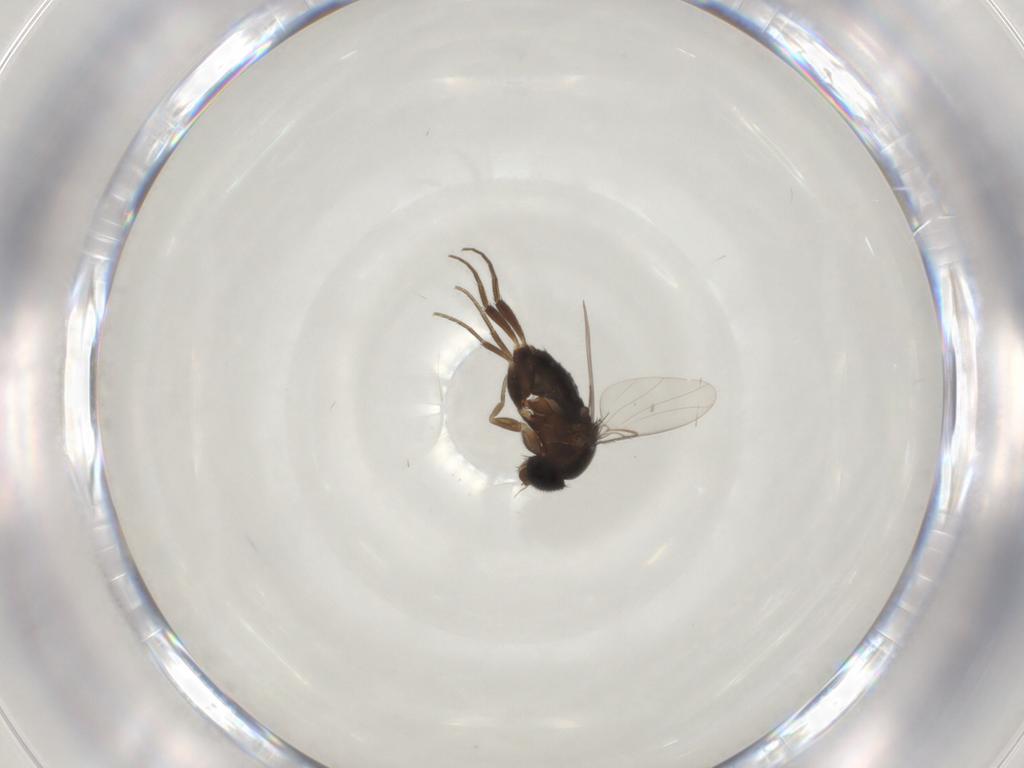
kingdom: Animalia
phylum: Arthropoda
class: Insecta
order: Diptera
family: Phoridae
